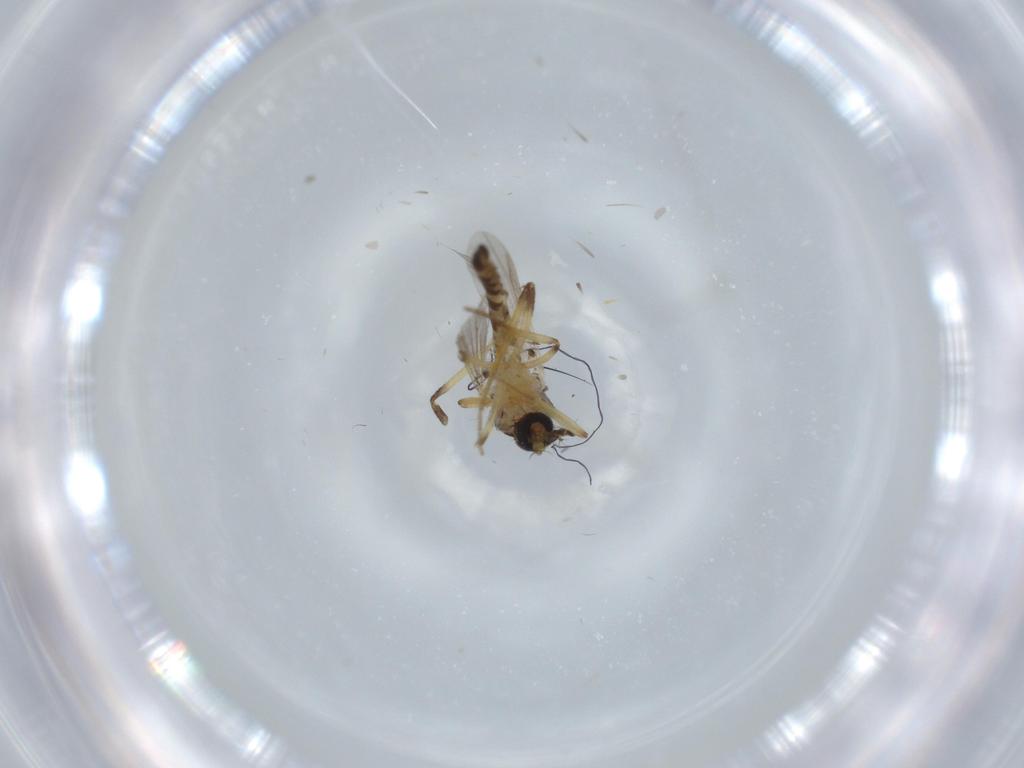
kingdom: Animalia
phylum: Arthropoda
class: Insecta
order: Diptera
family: Ceratopogonidae
